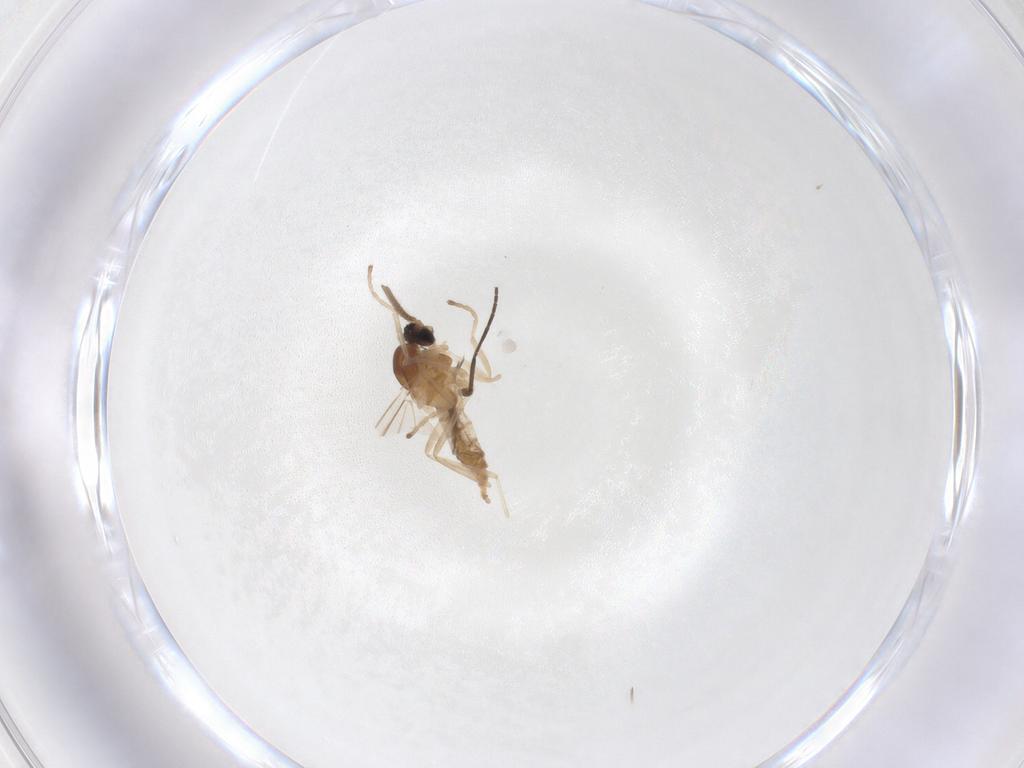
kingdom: Animalia
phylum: Arthropoda
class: Insecta
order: Diptera
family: Cecidomyiidae
